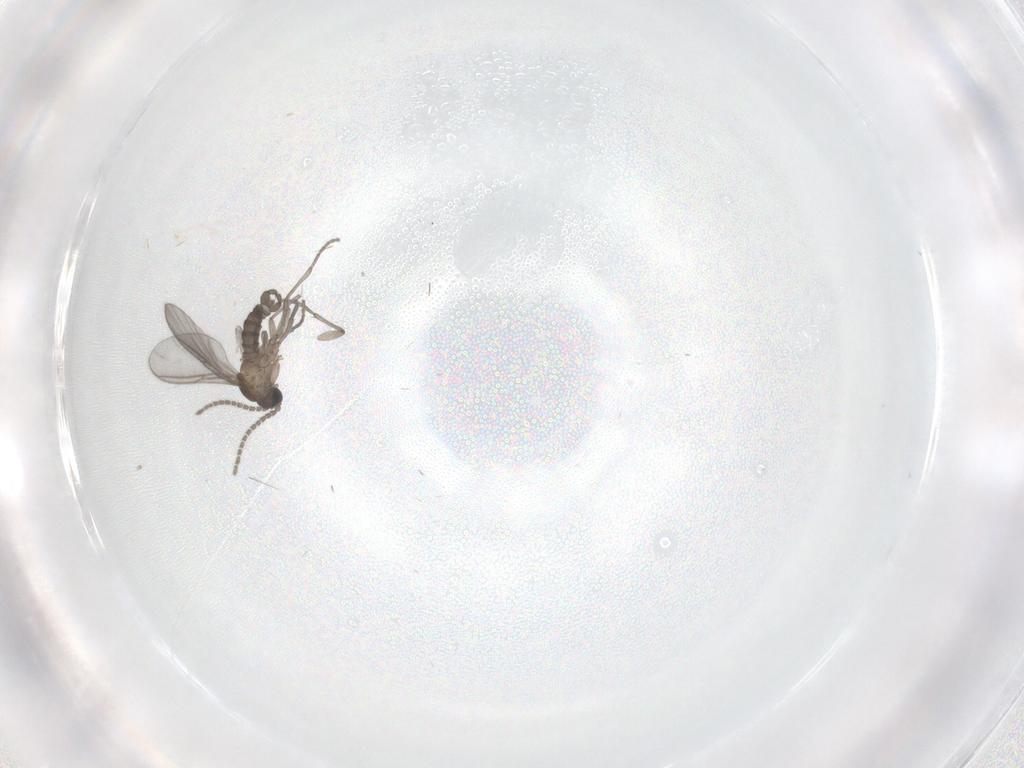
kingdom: Animalia
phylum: Arthropoda
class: Insecta
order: Diptera
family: Sciaridae
